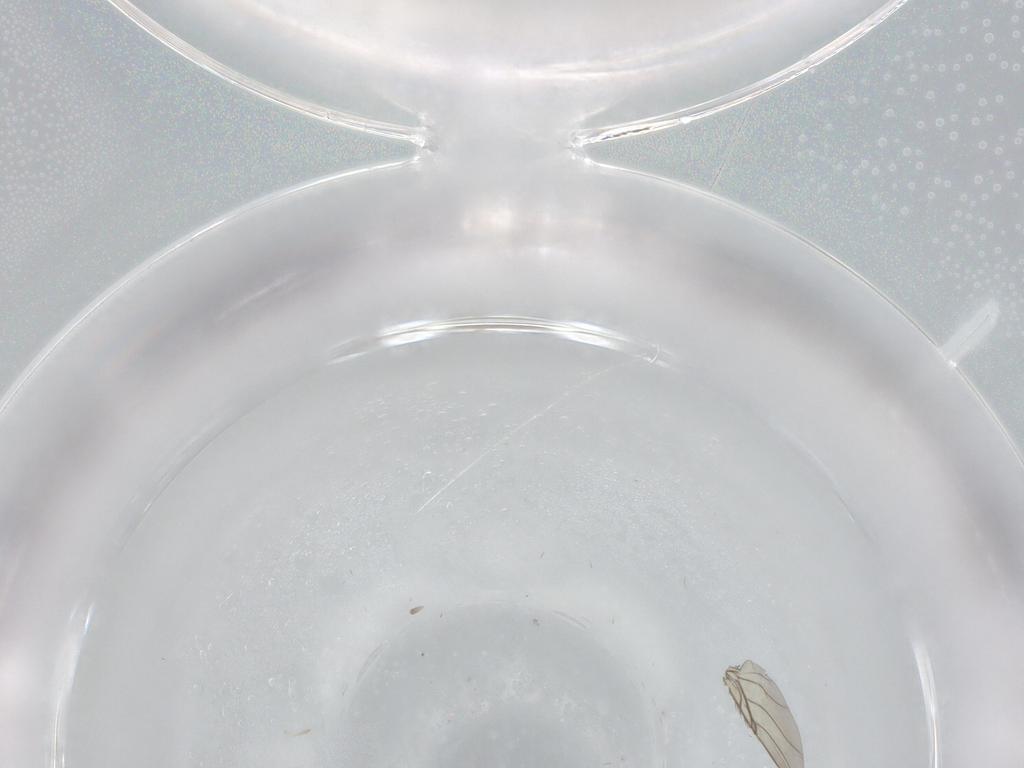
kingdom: Animalia
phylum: Arthropoda
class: Insecta
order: Diptera
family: Phoridae
